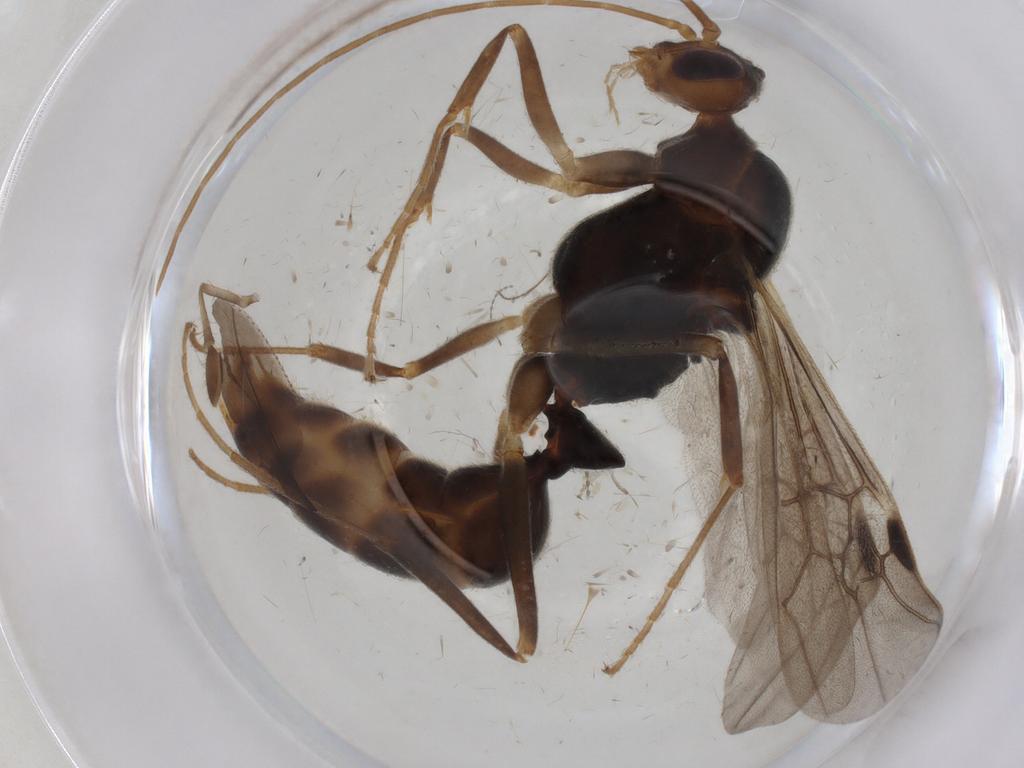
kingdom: Animalia
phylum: Arthropoda
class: Insecta
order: Hymenoptera
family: Formicidae
